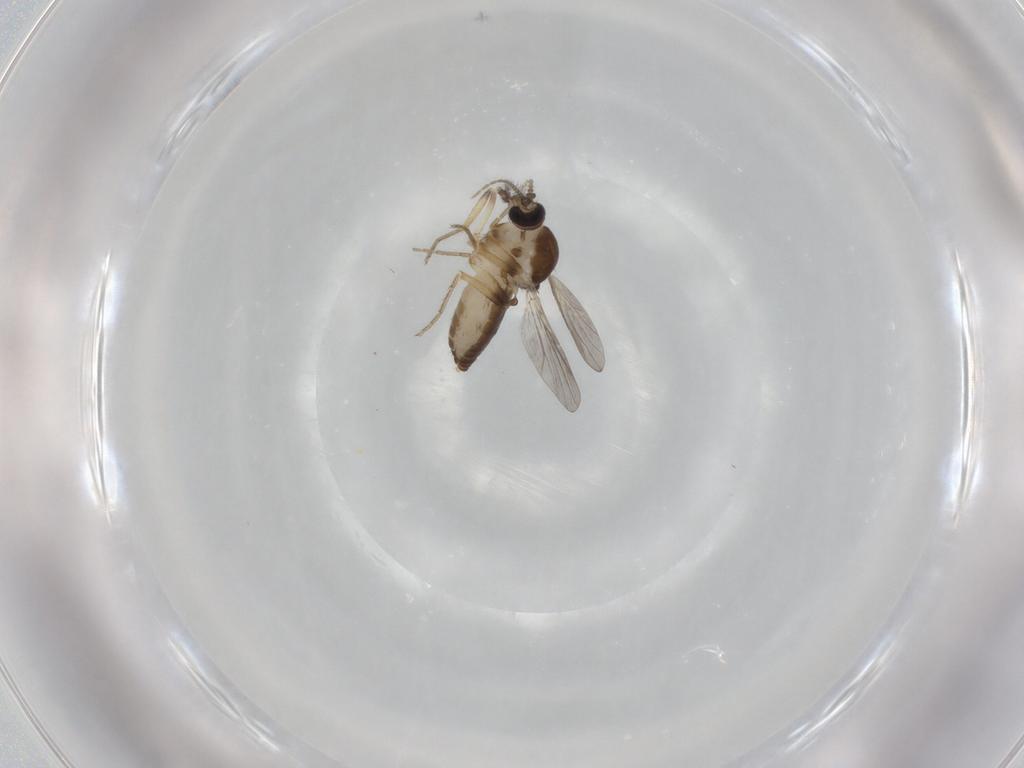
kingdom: Animalia
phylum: Arthropoda
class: Insecta
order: Diptera
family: Ceratopogonidae
